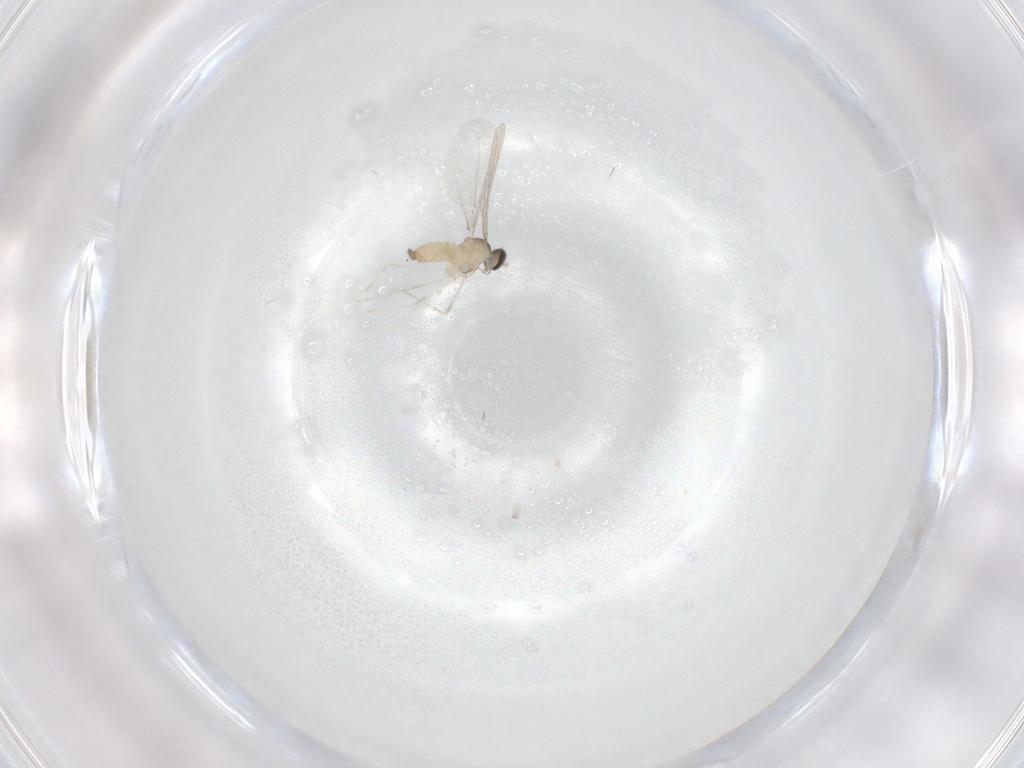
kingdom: Animalia
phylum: Arthropoda
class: Insecta
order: Diptera
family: Cecidomyiidae
